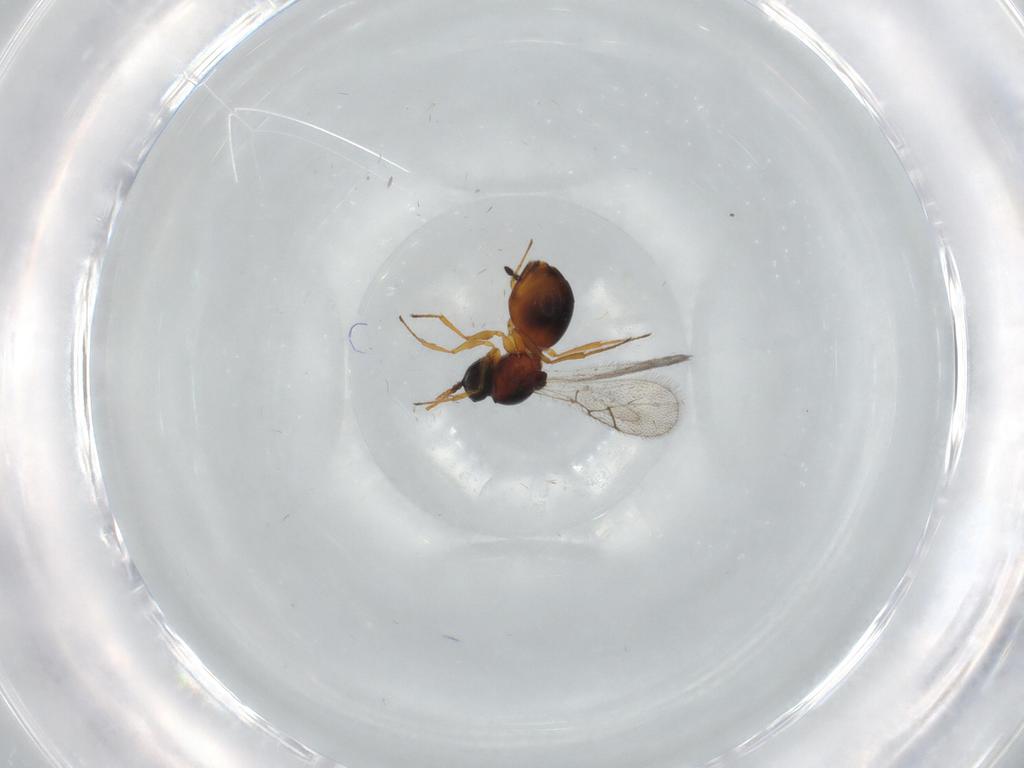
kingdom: Animalia
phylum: Arthropoda
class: Insecta
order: Hymenoptera
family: Figitidae
